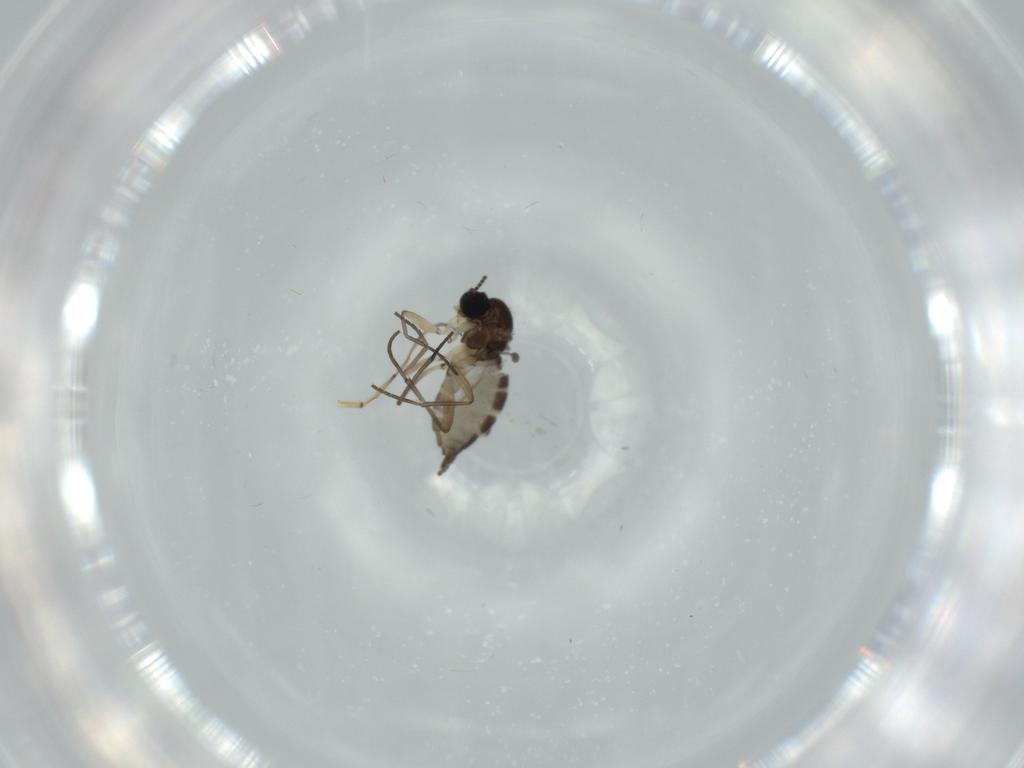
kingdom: Animalia
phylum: Arthropoda
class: Insecta
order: Diptera
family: Sciaridae
